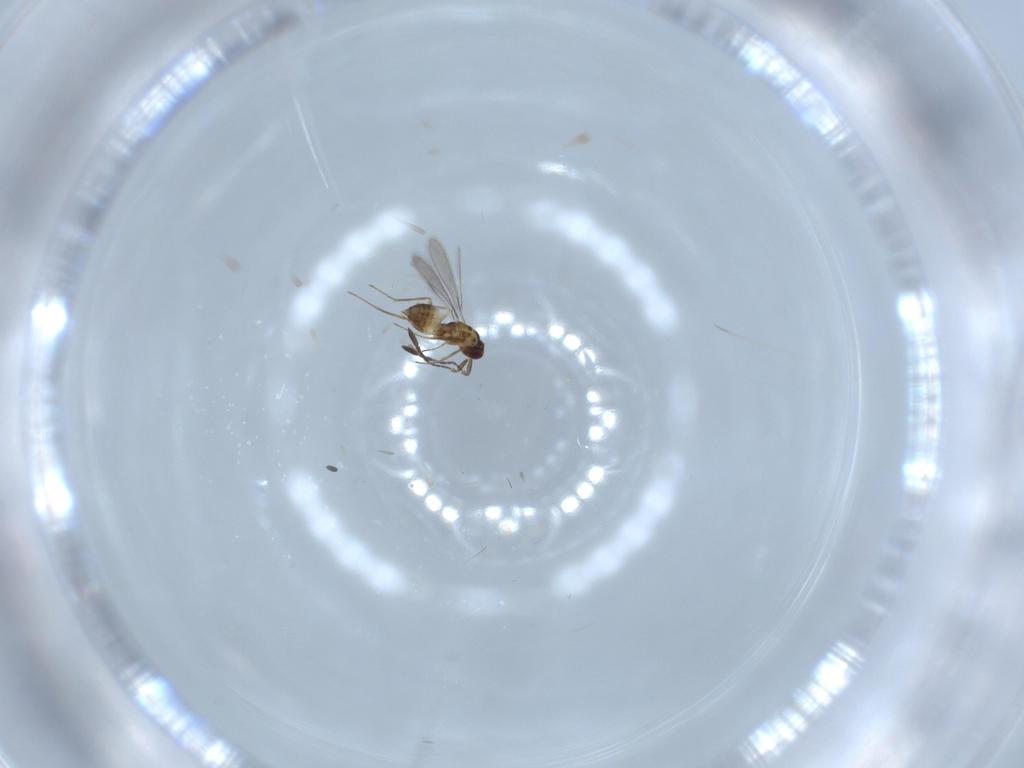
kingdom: Animalia
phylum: Arthropoda
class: Insecta
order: Hymenoptera
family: Mymaridae
